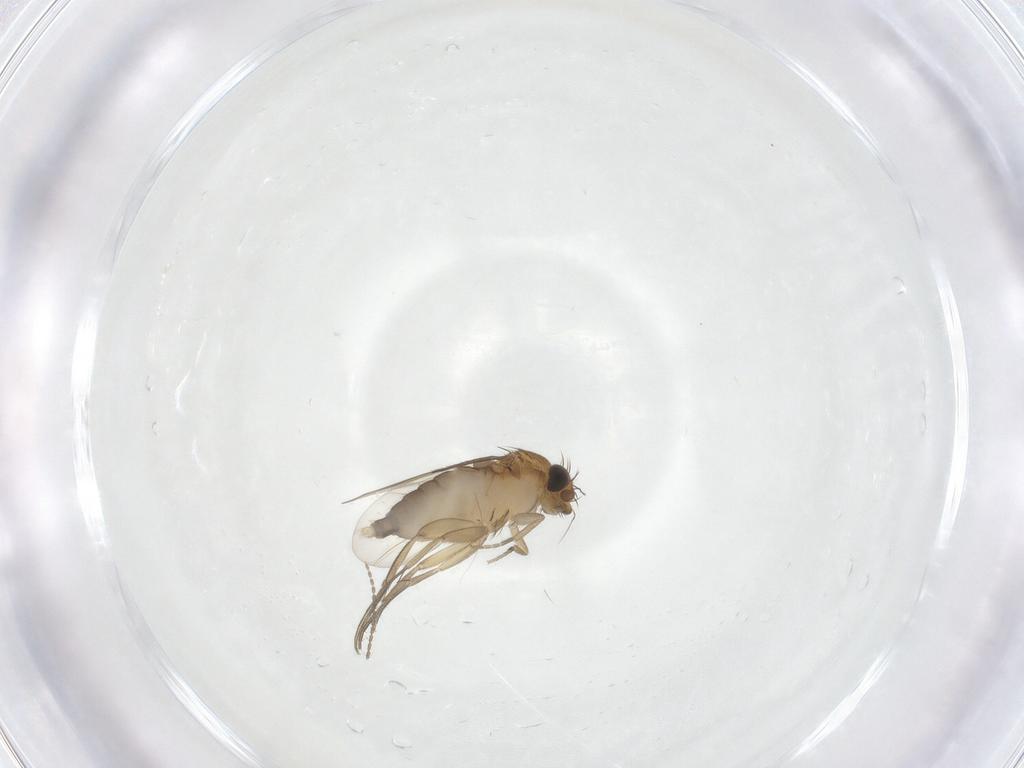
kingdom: Animalia
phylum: Arthropoda
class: Insecta
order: Diptera
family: Cecidomyiidae
